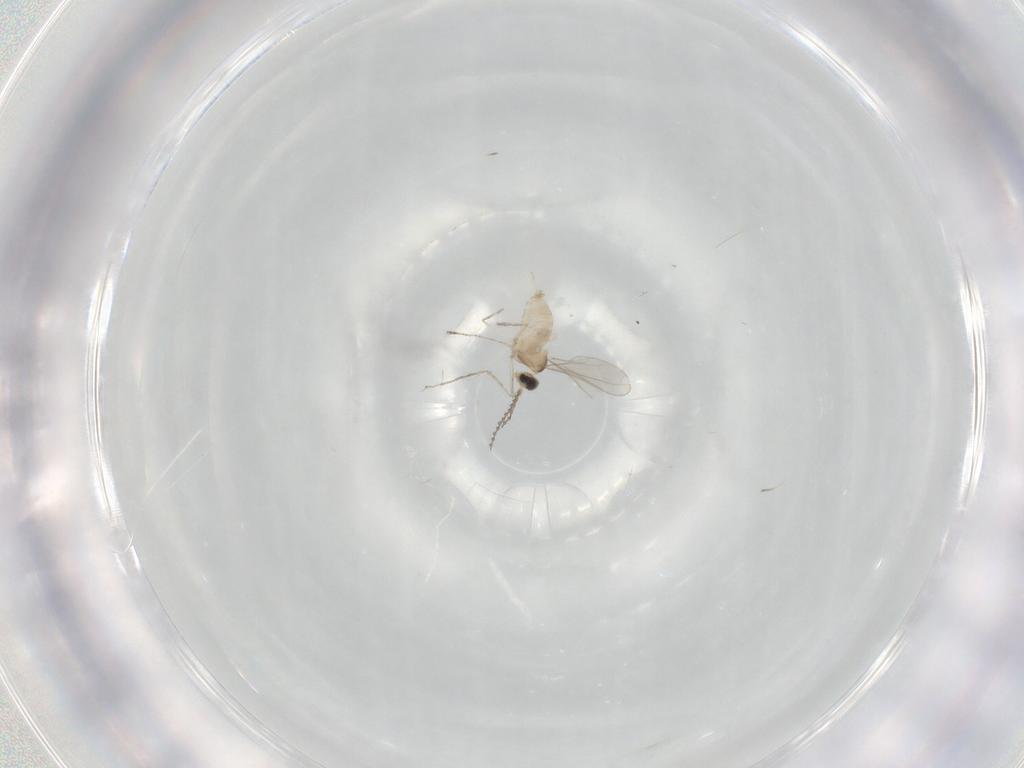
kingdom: Animalia
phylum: Arthropoda
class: Insecta
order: Diptera
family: Cecidomyiidae
